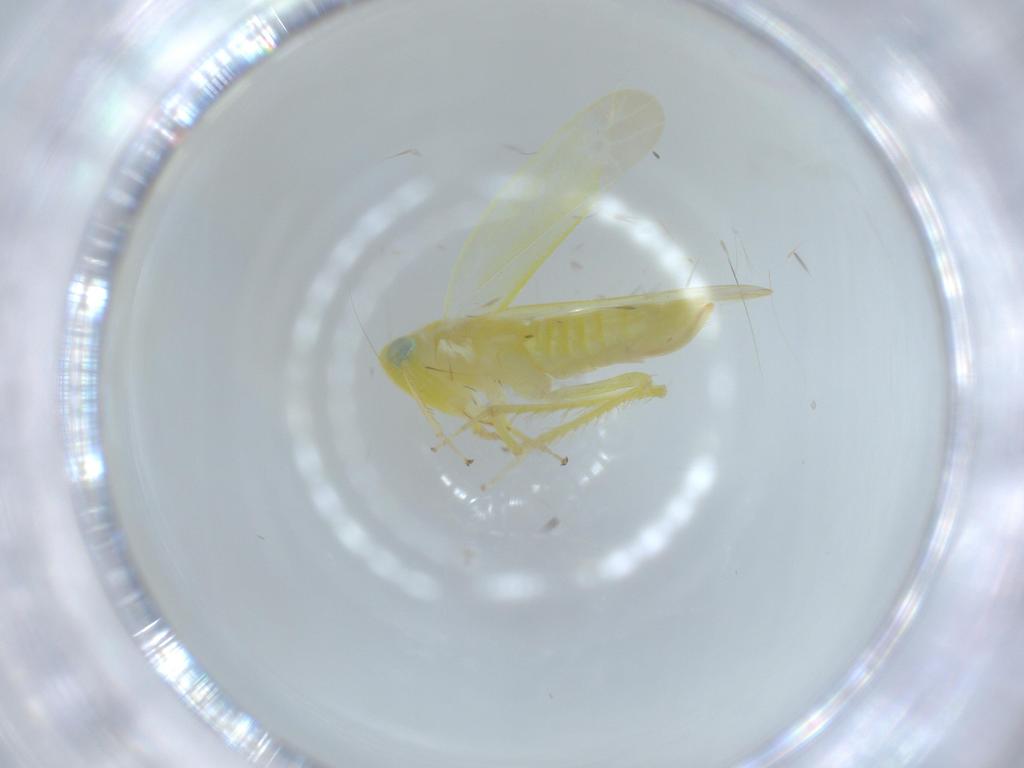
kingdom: Animalia
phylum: Arthropoda
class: Insecta
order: Hemiptera
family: Cicadellidae
